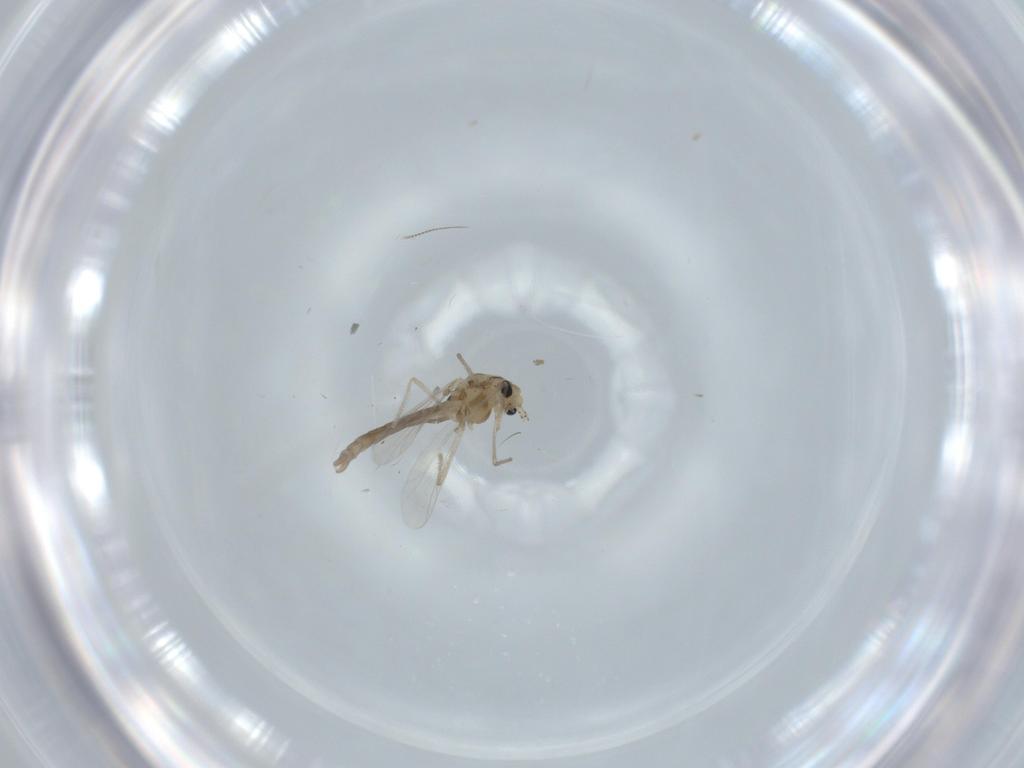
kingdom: Animalia
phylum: Arthropoda
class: Insecta
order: Diptera
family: Chironomidae
